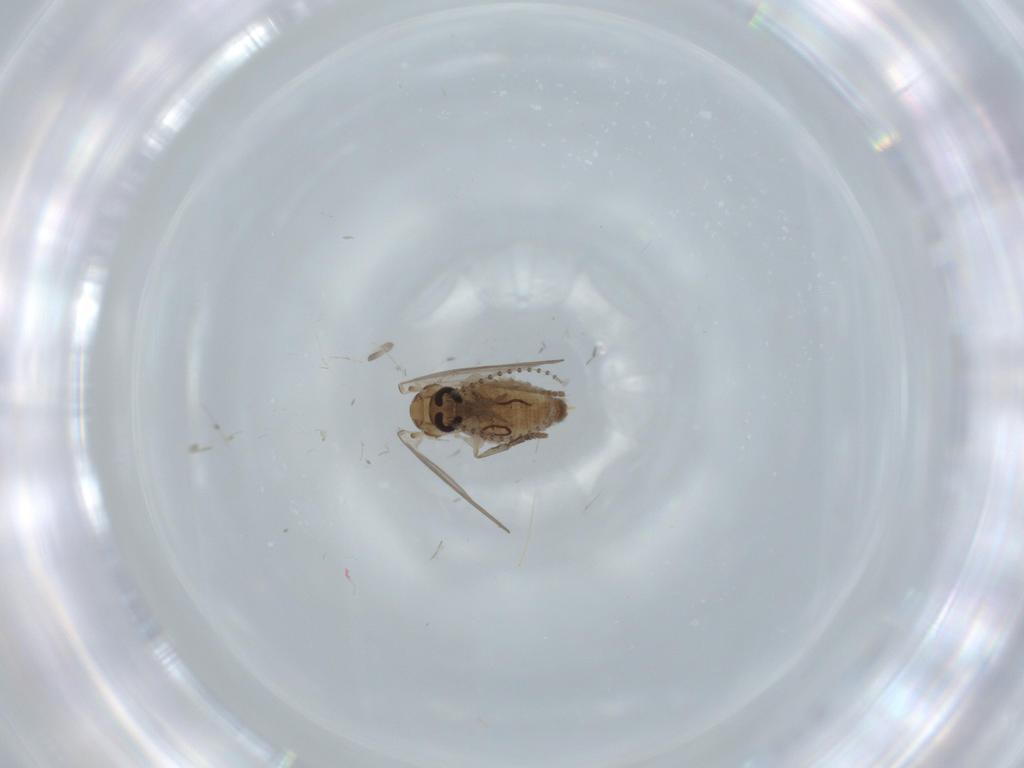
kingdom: Animalia
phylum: Arthropoda
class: Insecta
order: Diptera
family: Psychodidae
